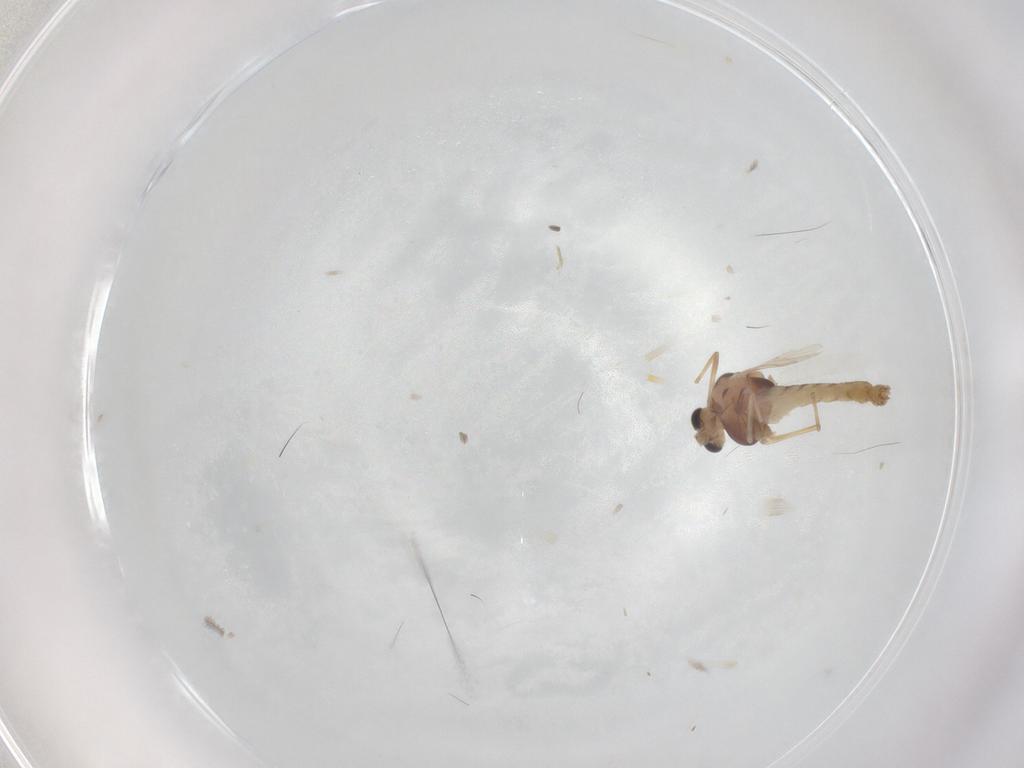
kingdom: Animalia
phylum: Arthropoda
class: Insecta
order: Diptera
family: Chironomidae
